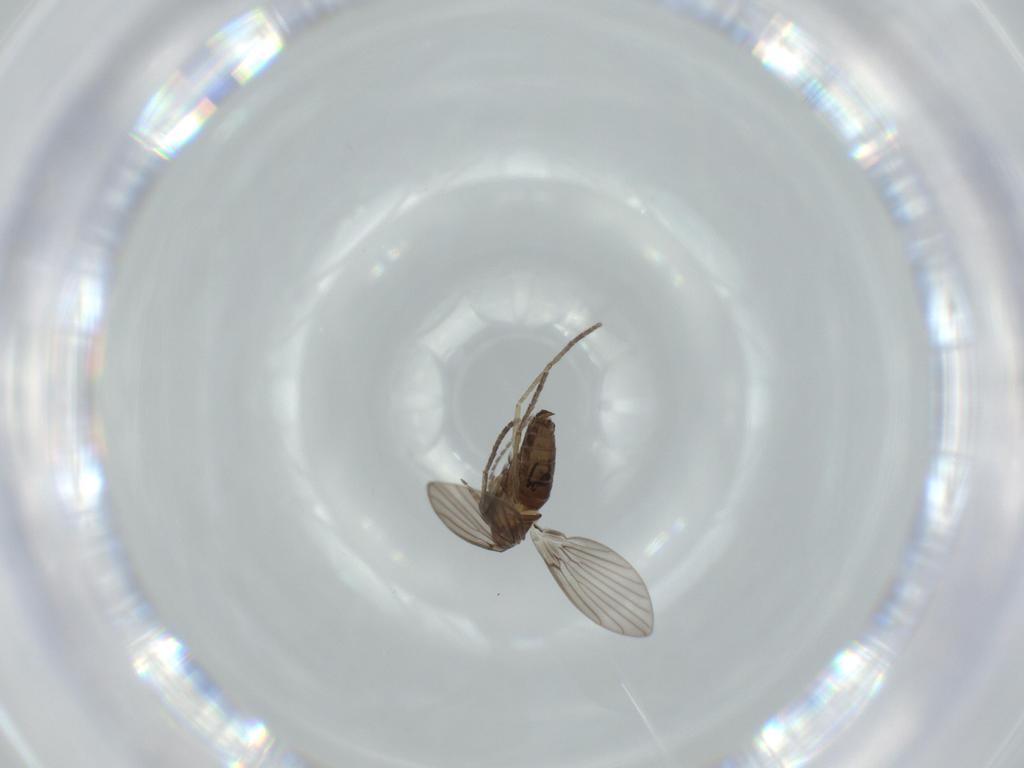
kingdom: Animalia
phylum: Arthropoda
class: Insecta
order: Diptera
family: Psychodidae
